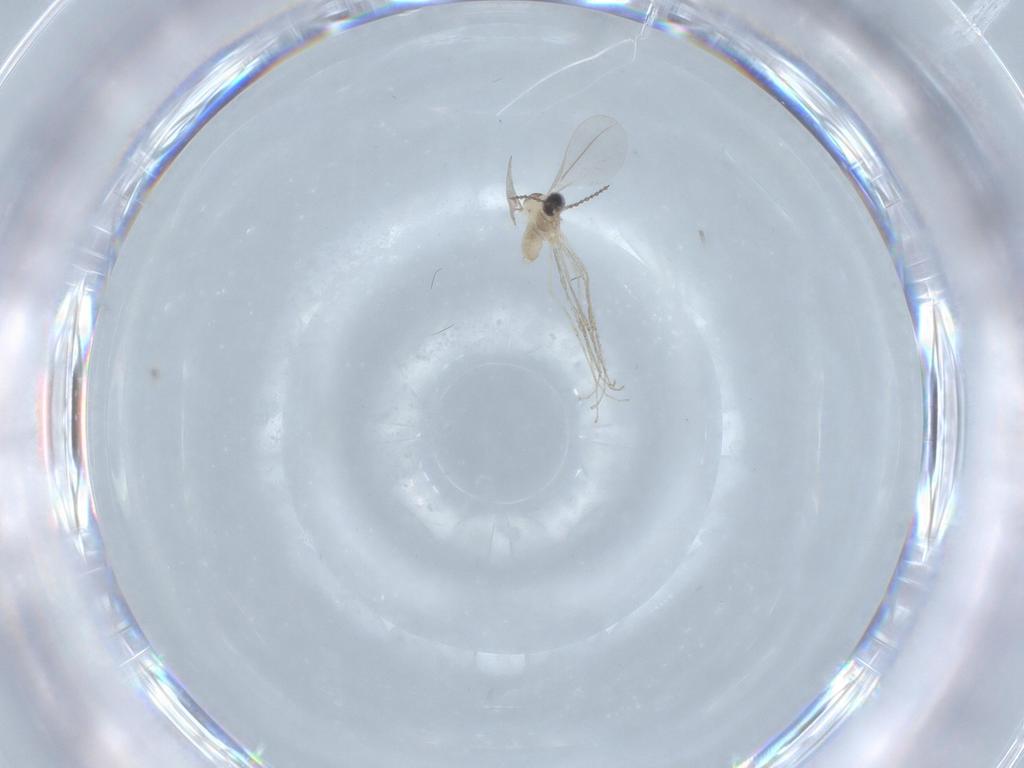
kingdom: Animalia
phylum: Arthropoda
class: Insecta
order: Diptera
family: Cecidomyiidae
